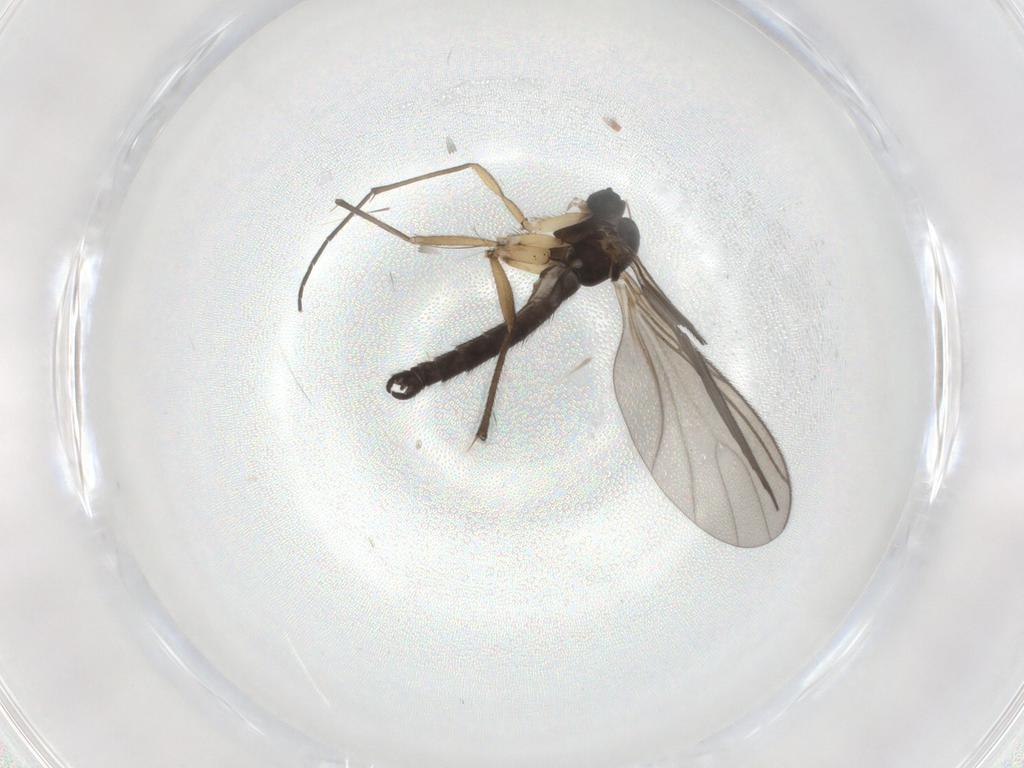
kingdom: Animalia
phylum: Arthropoda
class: Insecta
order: Diptera
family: Sciaridae
